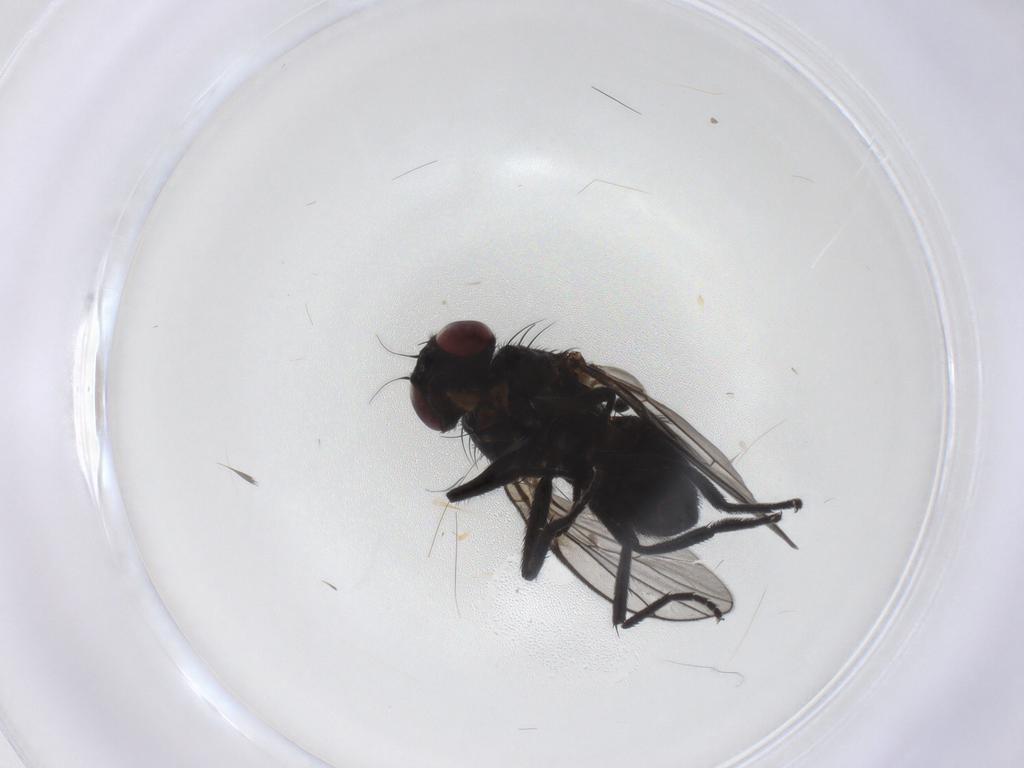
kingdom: Animalia
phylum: Arthropoda
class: Insecta
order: Diptera
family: Agromyzidae
